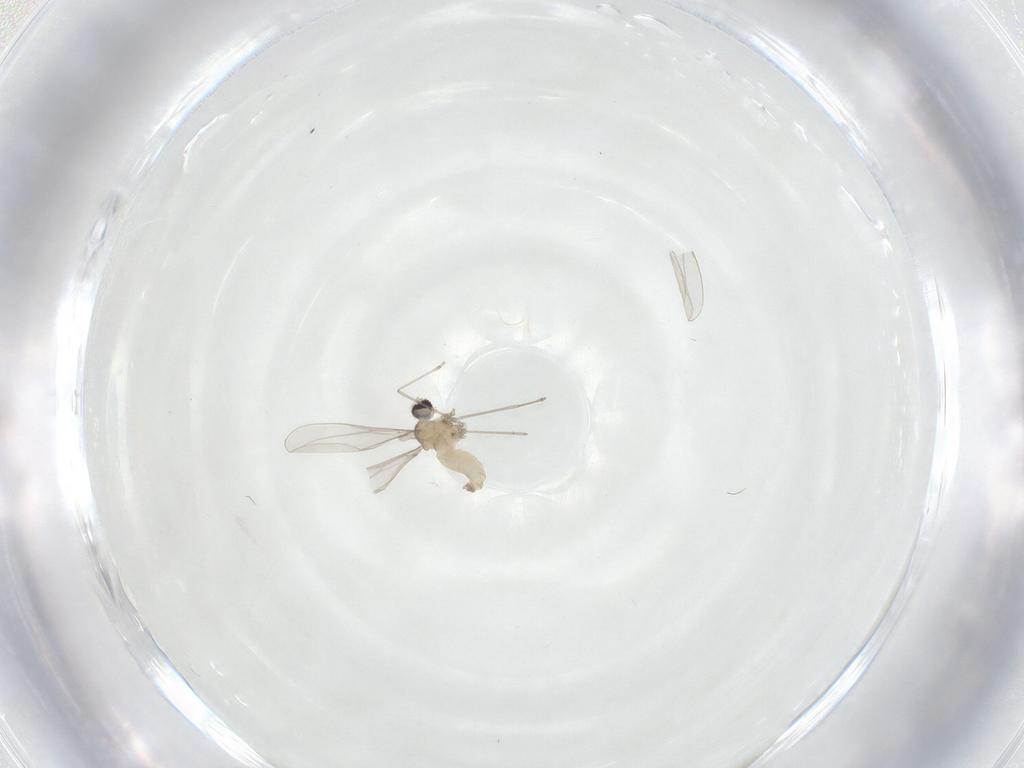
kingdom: Animalia
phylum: Arthropoda
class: Insecta
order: Diptera
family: Cecidomyiidae
